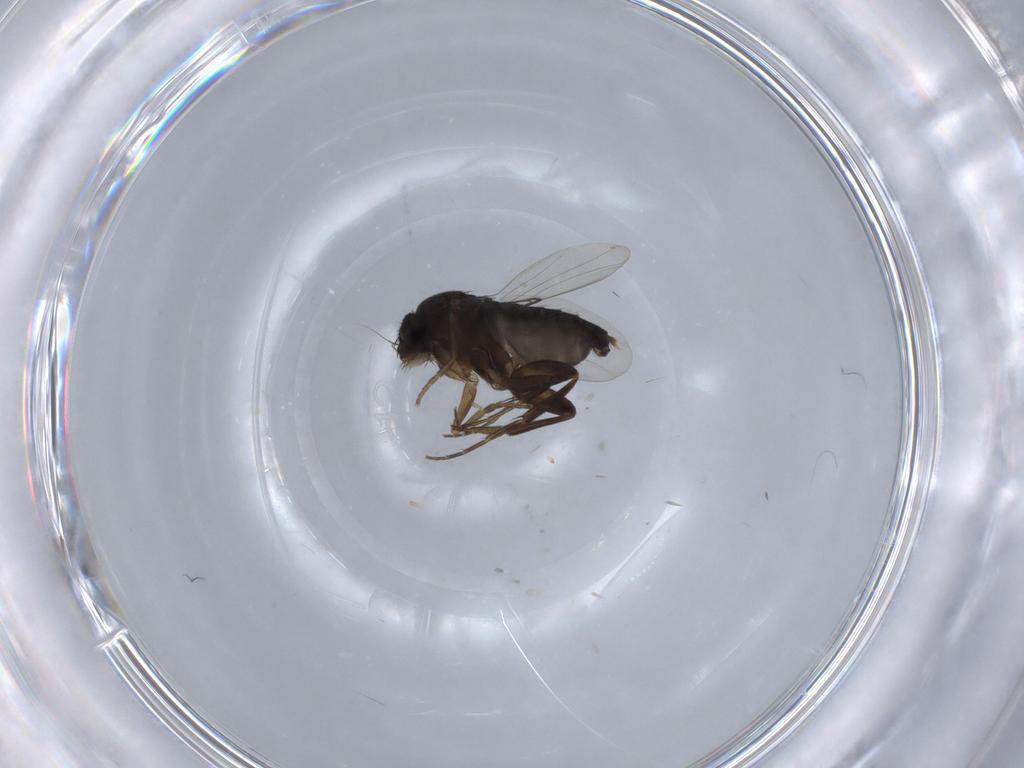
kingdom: Animalia
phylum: Arthropoda
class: Insecta
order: Diptera
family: Phoridae
